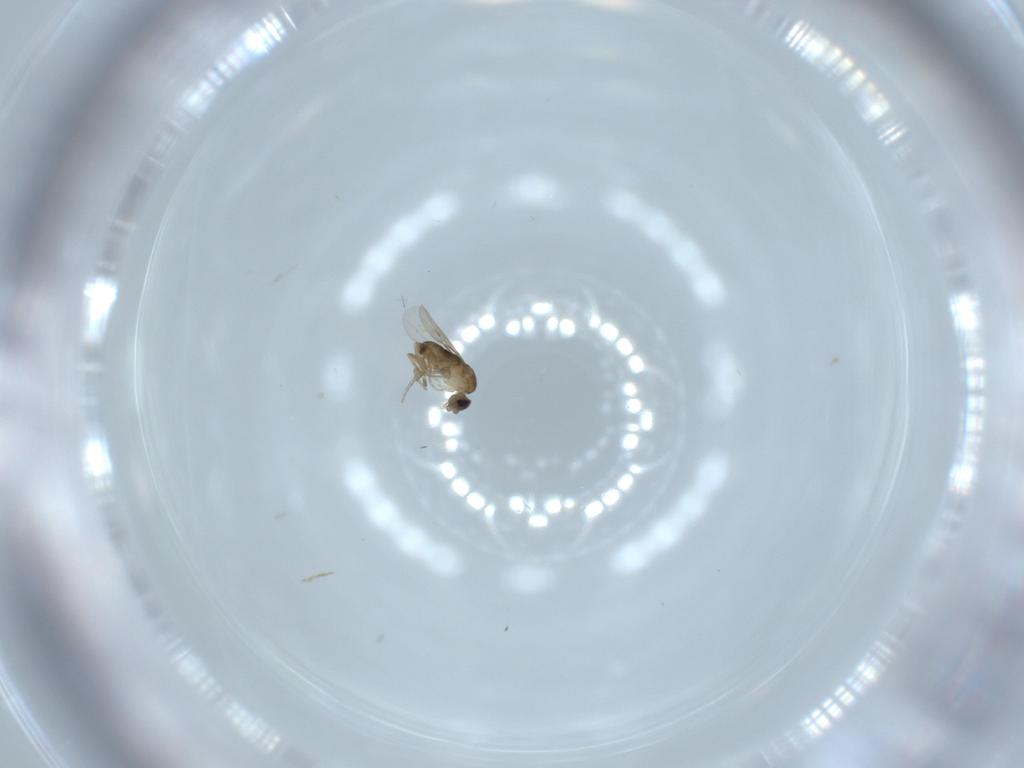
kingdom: Animalia
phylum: Arthropoda
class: Insecta
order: Diptera
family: Cecidomyiidae
